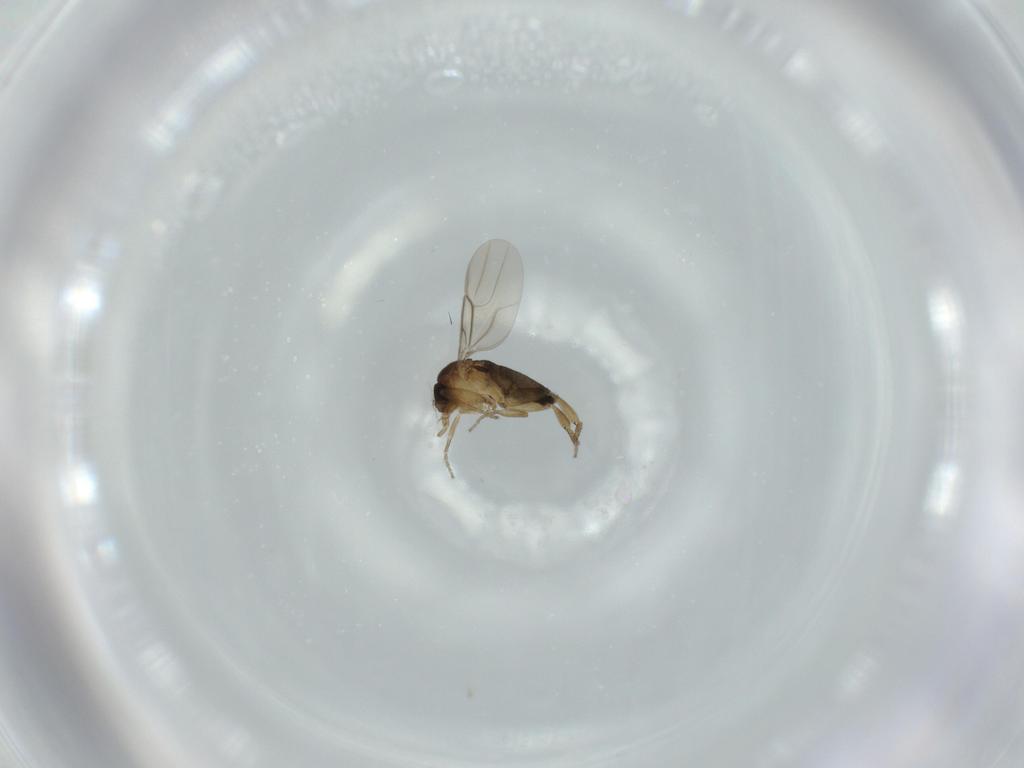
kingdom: Animalia
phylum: Arthropoda
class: Insecta
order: Diptera
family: Phoridae
